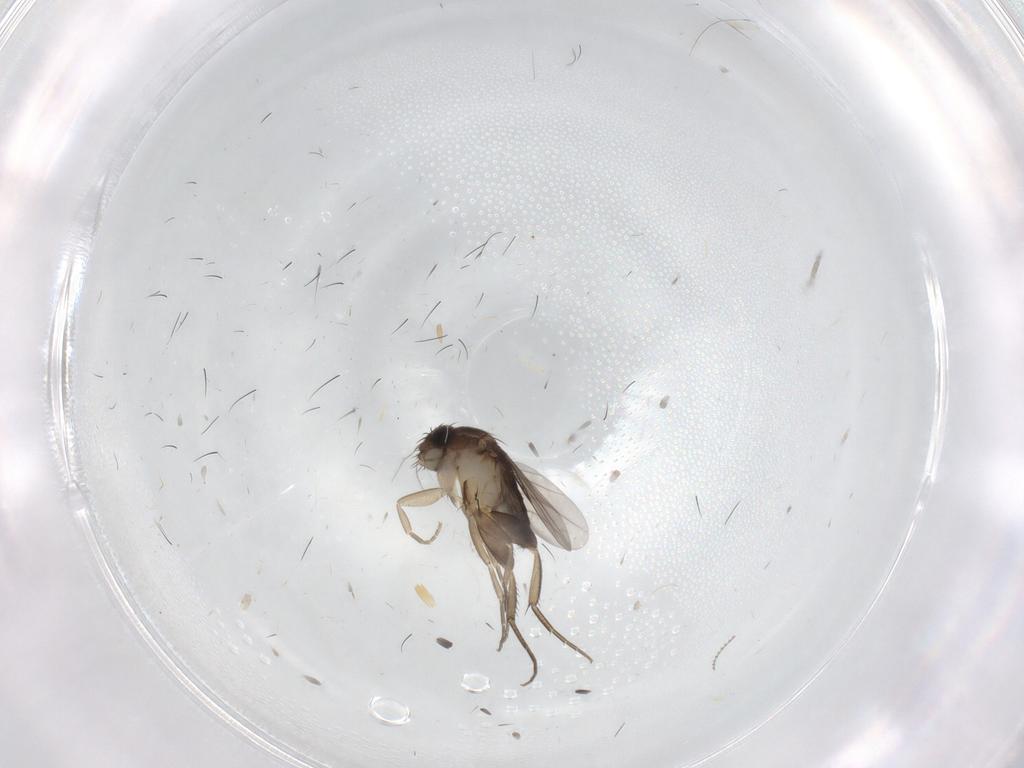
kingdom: Animalia
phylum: Arthropoda
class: Insecta
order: Diptera
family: Phoridae
